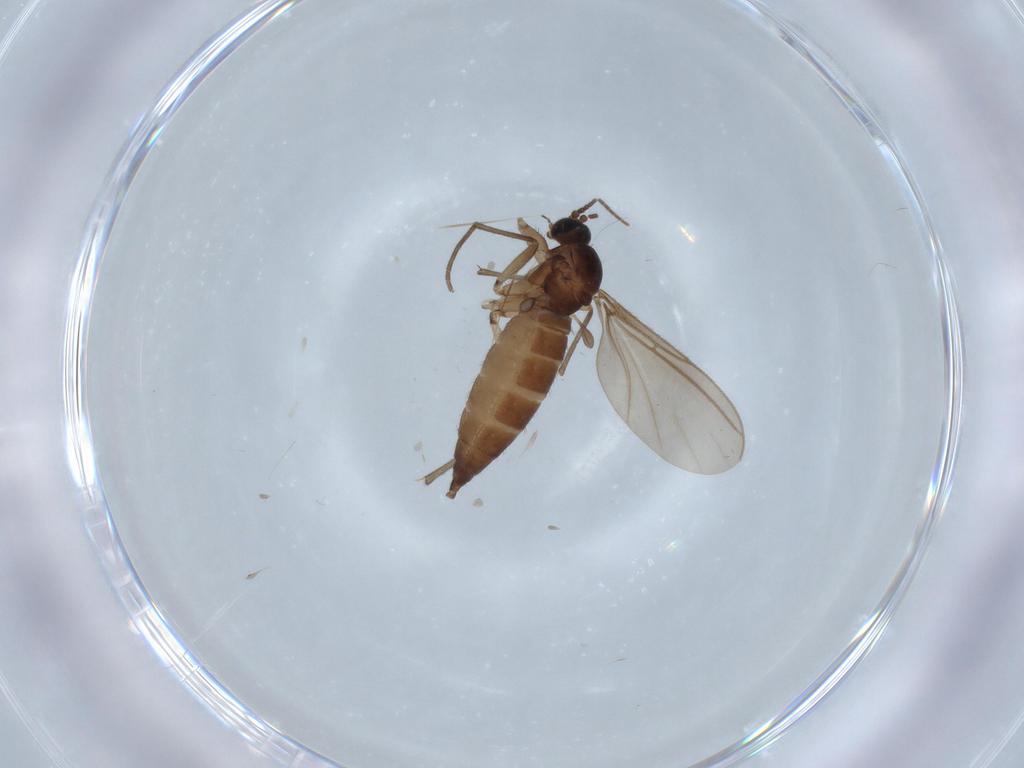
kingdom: Animalia
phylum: Arthropoda
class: Insecta
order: Diptera
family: Sciaridae
